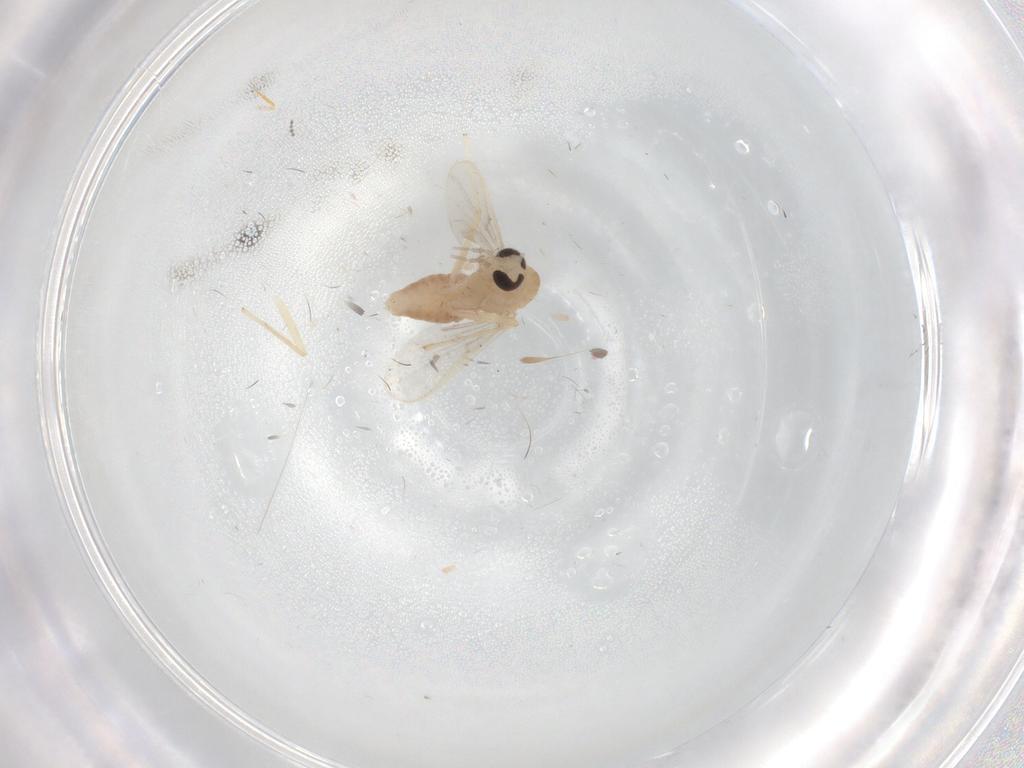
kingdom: Animalia
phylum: Arthropoda
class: Insecta
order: Diptera
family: Chironomidae
